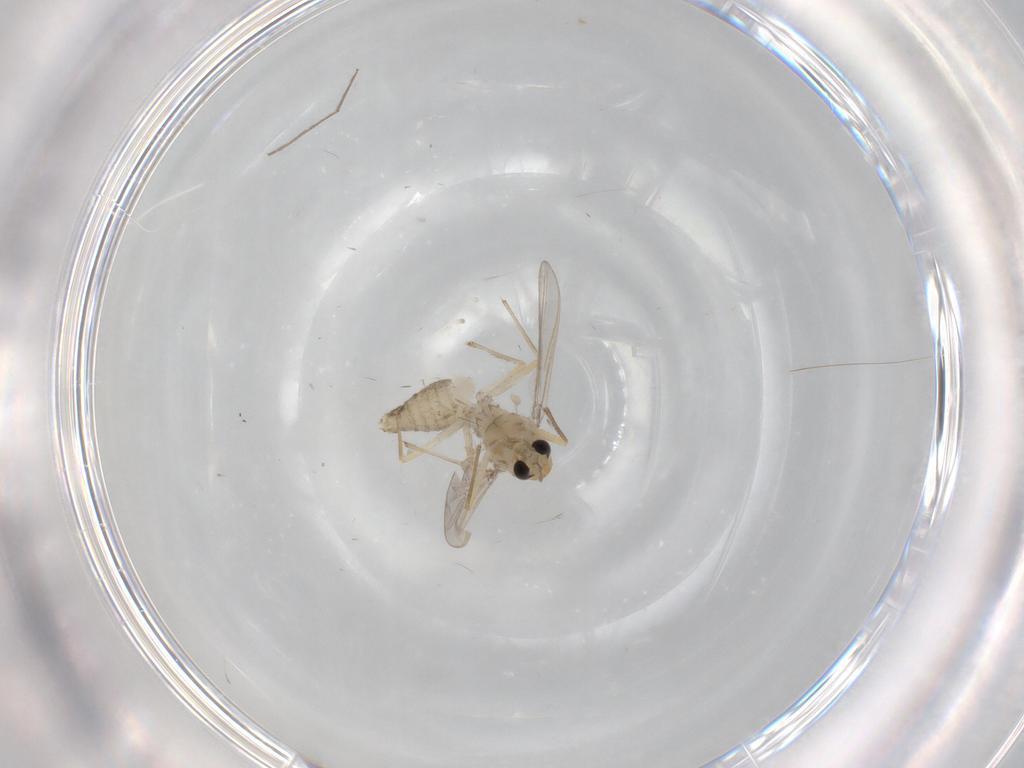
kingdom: Animalia
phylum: Arthropoda
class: Insecta
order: Diptera
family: Chironomidae
